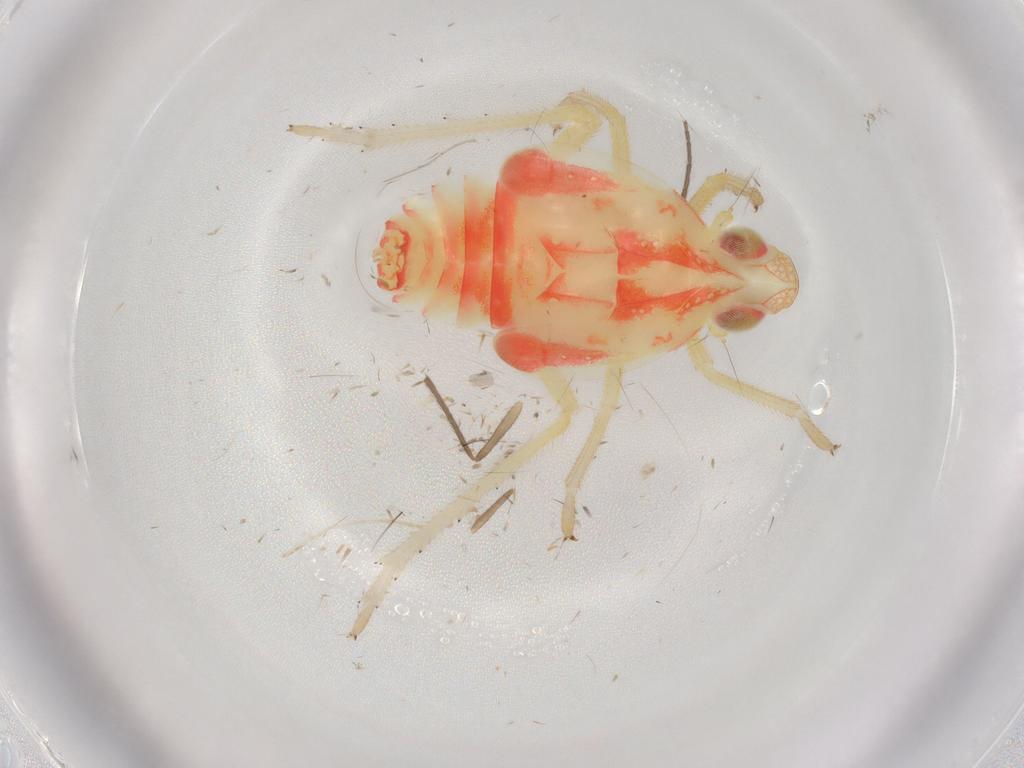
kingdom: Animalia
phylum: Arthropoda
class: Insecta
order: Hemiptera
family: Tropiduchidae
